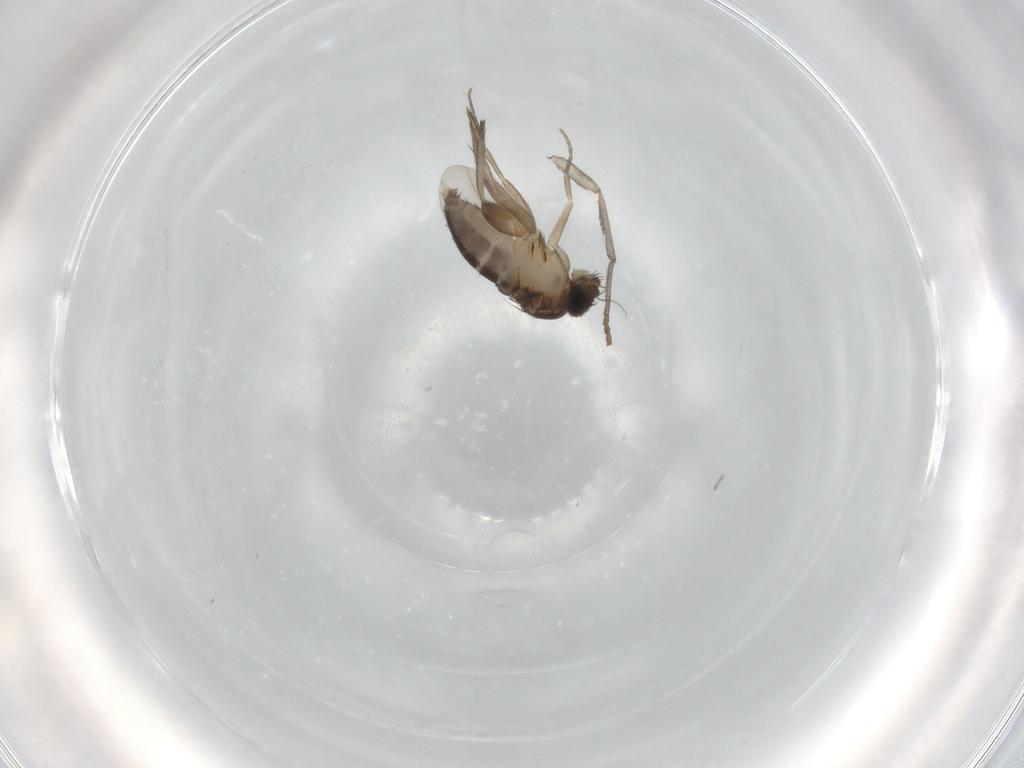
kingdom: Animalia
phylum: Arthropoda
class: Insecta
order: Diptera
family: Phoridae
